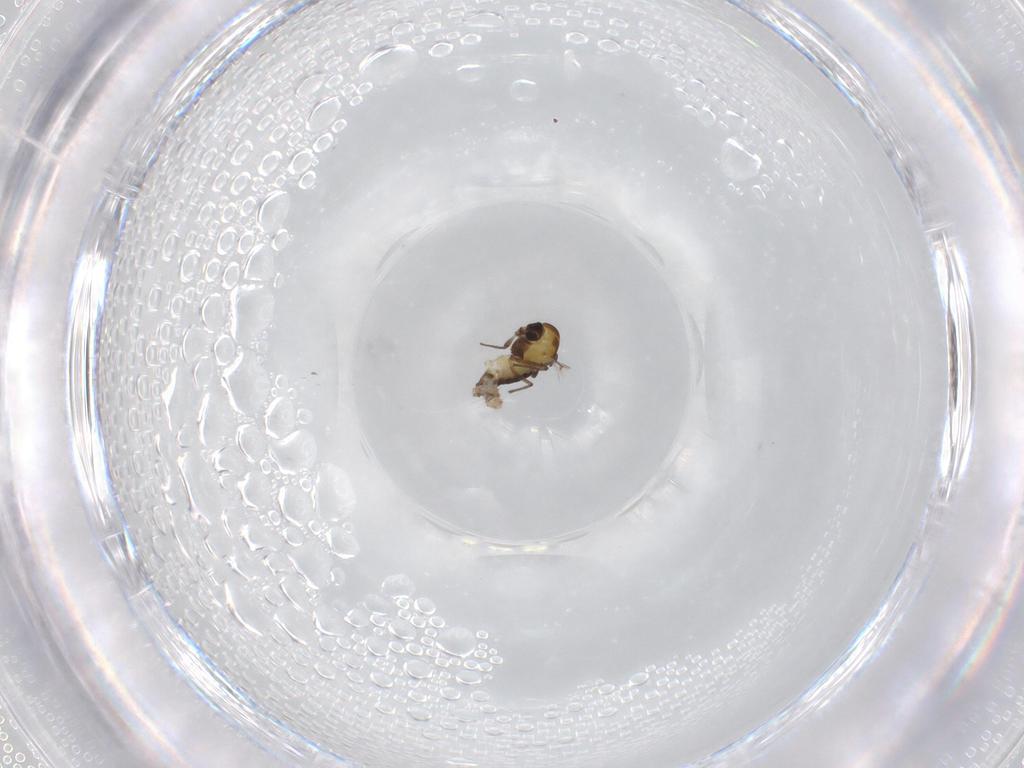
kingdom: Animalia
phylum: Arthropoda
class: Insecta
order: Diptera
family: Chironomidae
